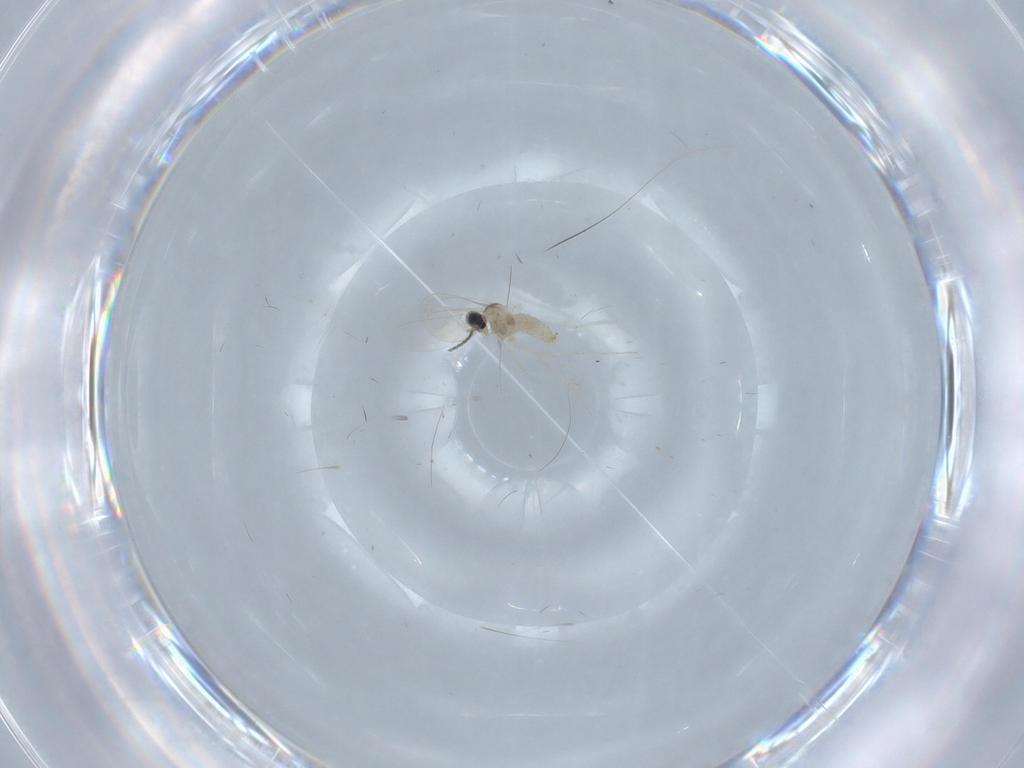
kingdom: Animalia
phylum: Arthropoda
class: Insecta
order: Diptera
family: Cecidomyiidae
